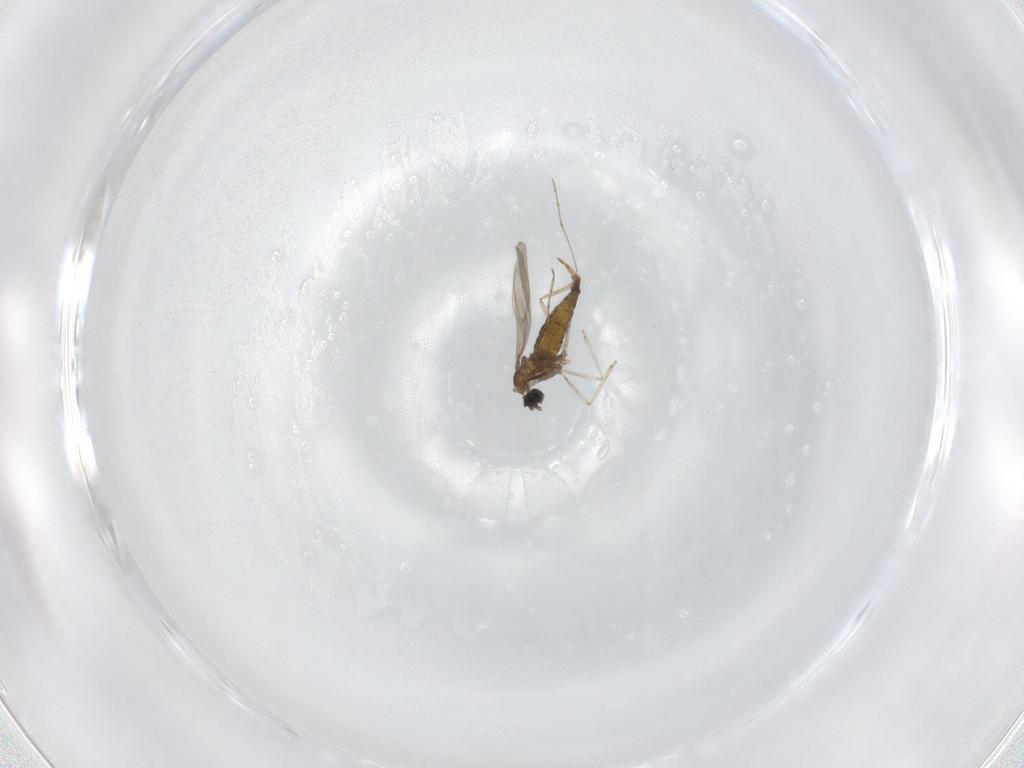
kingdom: Animalia
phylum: Arthropoda
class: Insecta
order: Diptera
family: Cecidomyiidae
